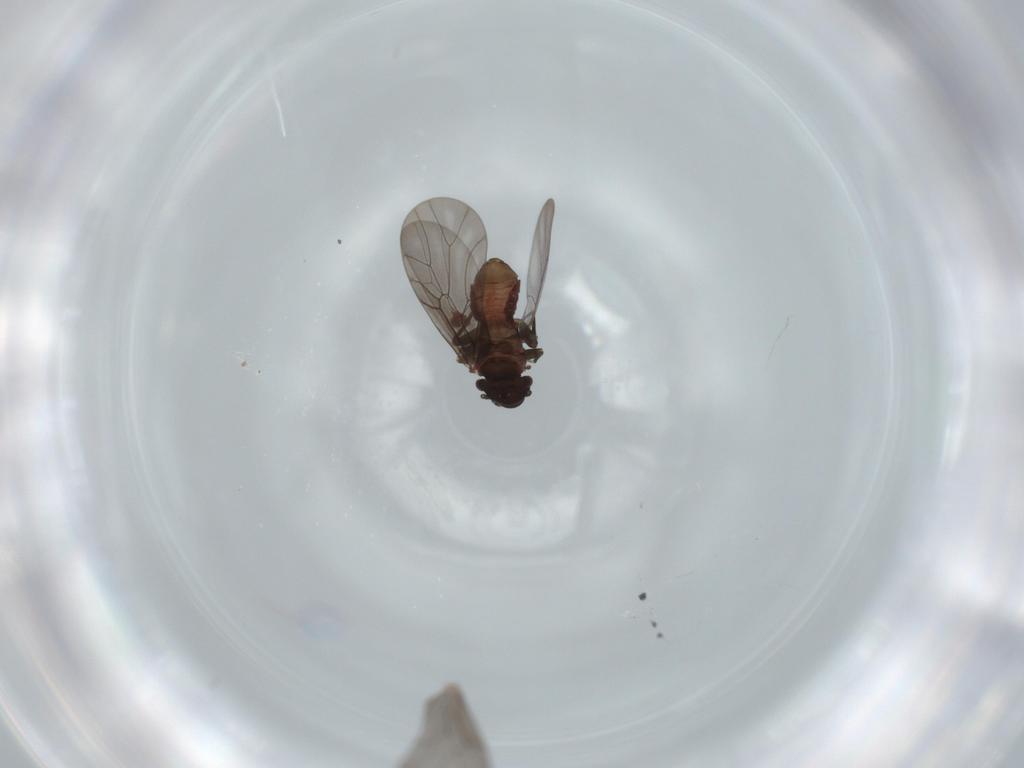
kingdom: Animalia
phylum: Arthropoda
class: Insecta
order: Psocodea
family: Lepidopsocidae
